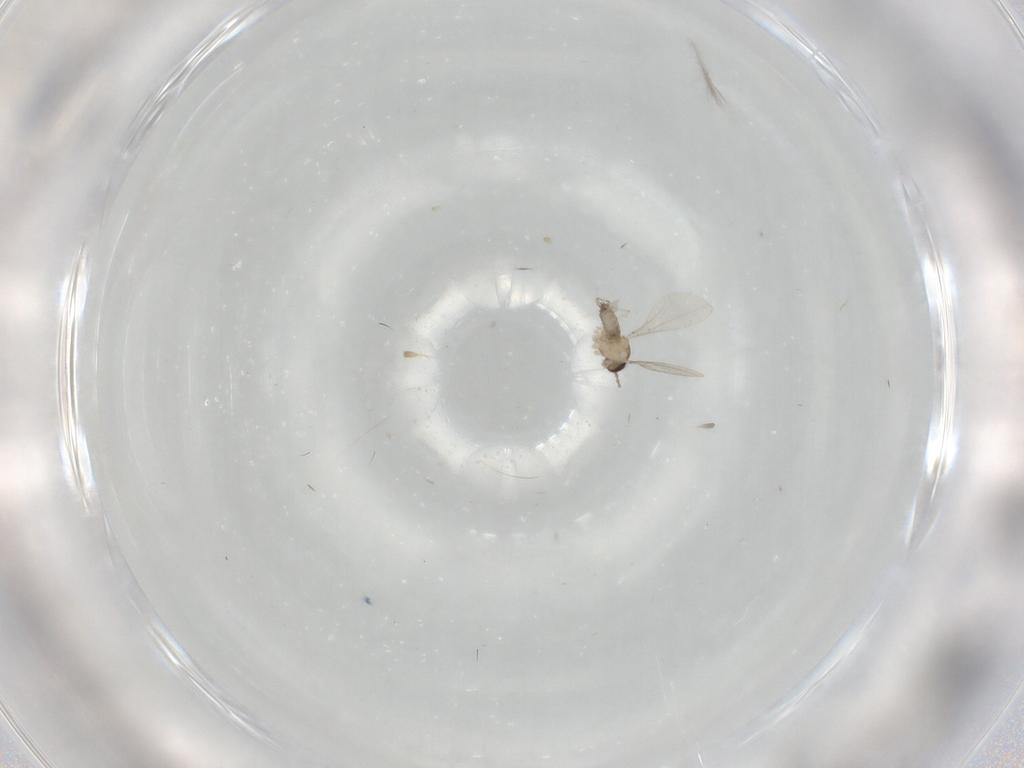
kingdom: Animalia
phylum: Arthropoda
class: Insecta
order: Diptera
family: Cecidomyiidae
